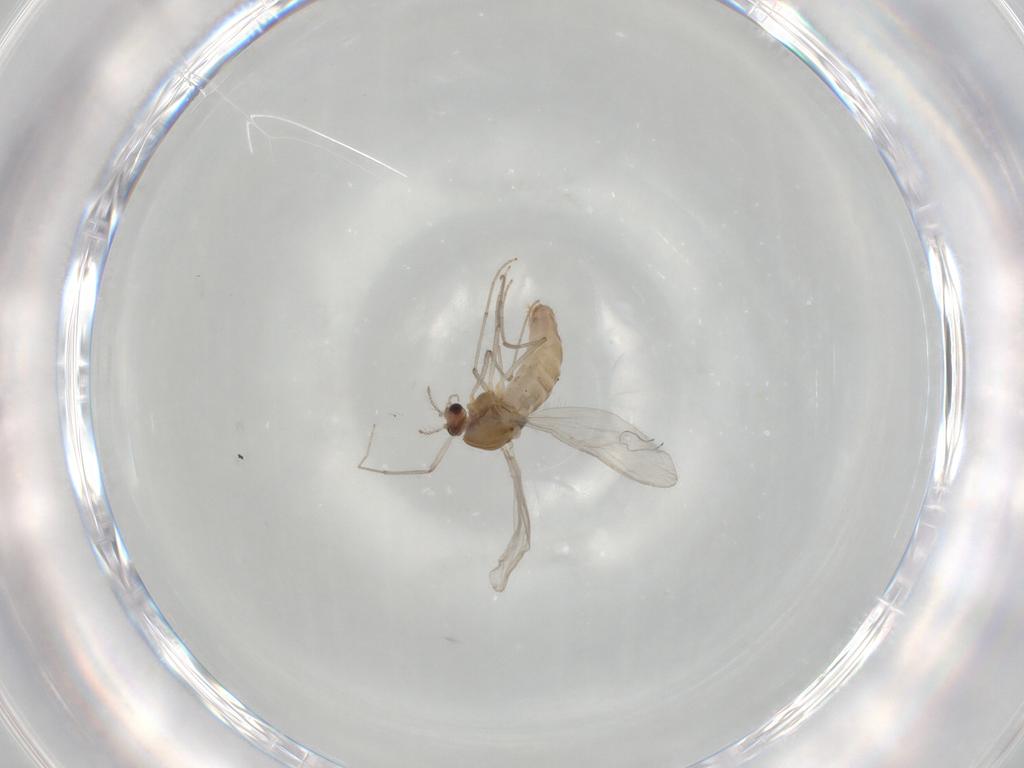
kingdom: Animalia
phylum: Arthropoda
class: Insecta
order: Diptera
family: Chironomidae
